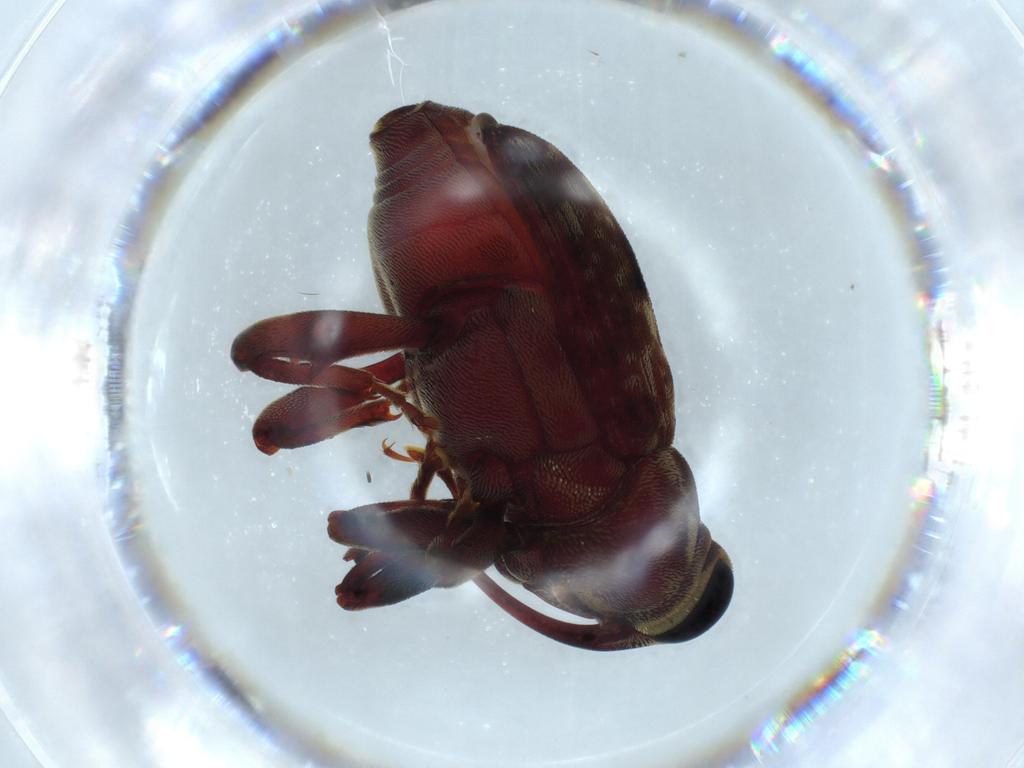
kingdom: Animalia
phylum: Arthropoda
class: Insecta
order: Coleoptera
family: Curculionidae
